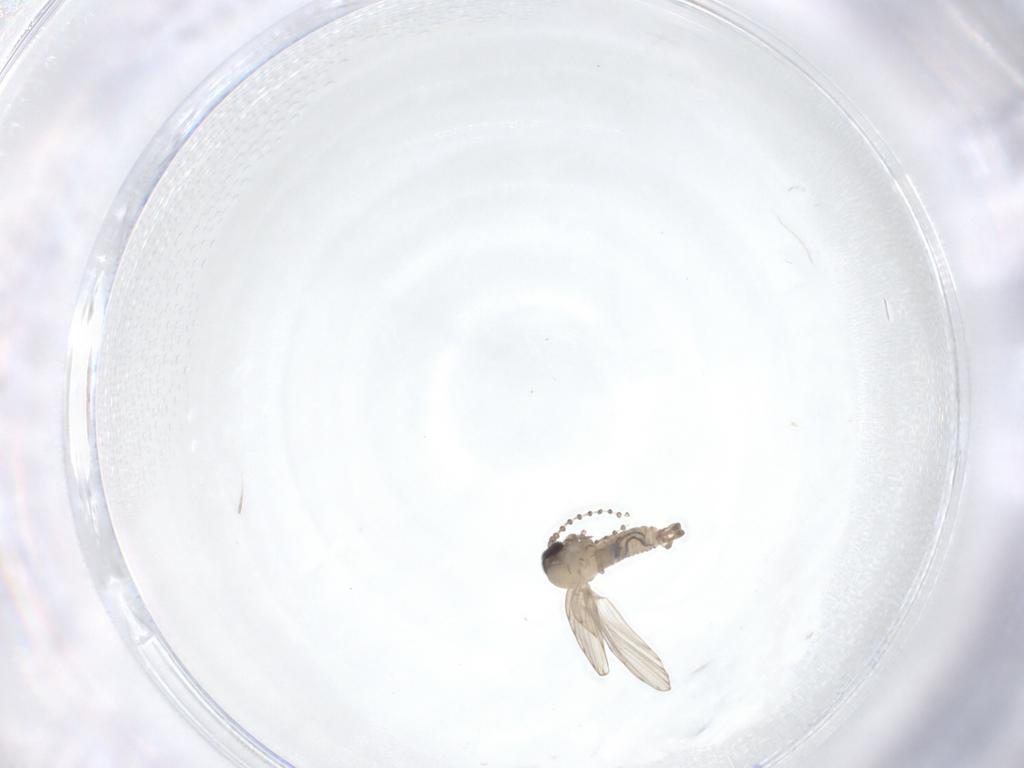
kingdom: Animalia
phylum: Arthropoda
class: Insecta
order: Diptera
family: Psychodidae
